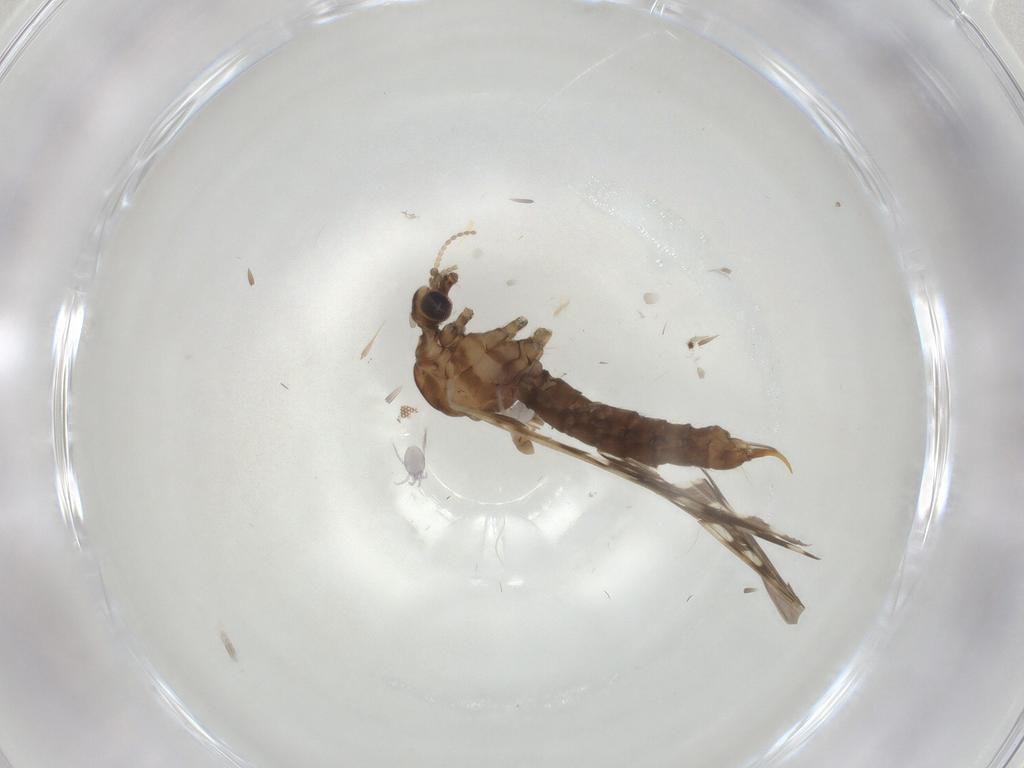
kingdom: Animalia
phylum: Arthropoda
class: Insecta
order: Diptera
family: Limoniidae
